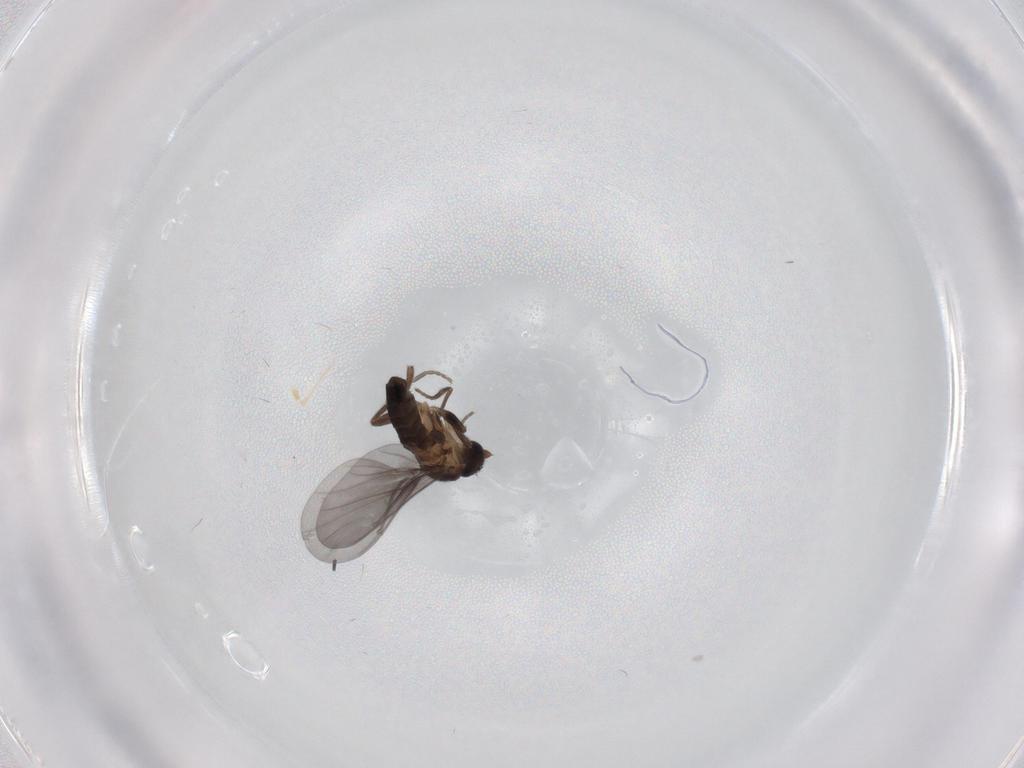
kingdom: Animalia
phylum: Arthropoda
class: Insecta
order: Diptera
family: Phoridae
